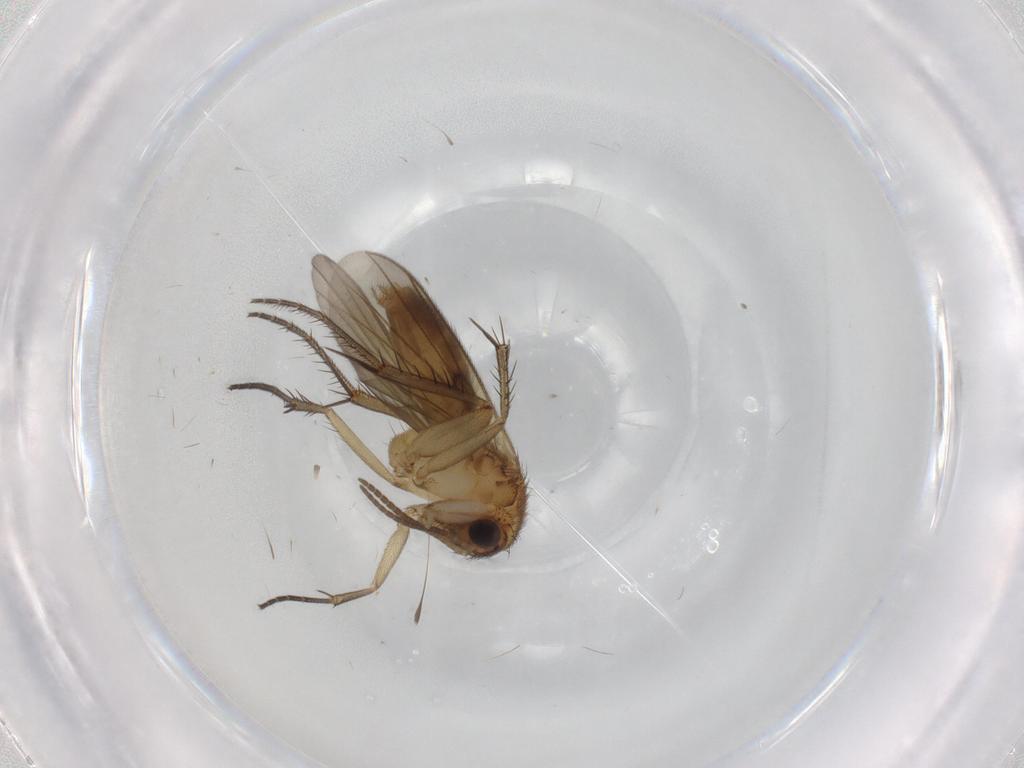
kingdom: Animalia
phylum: Arthropoda
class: Insecta
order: Diptera
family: Mycetophilidae
